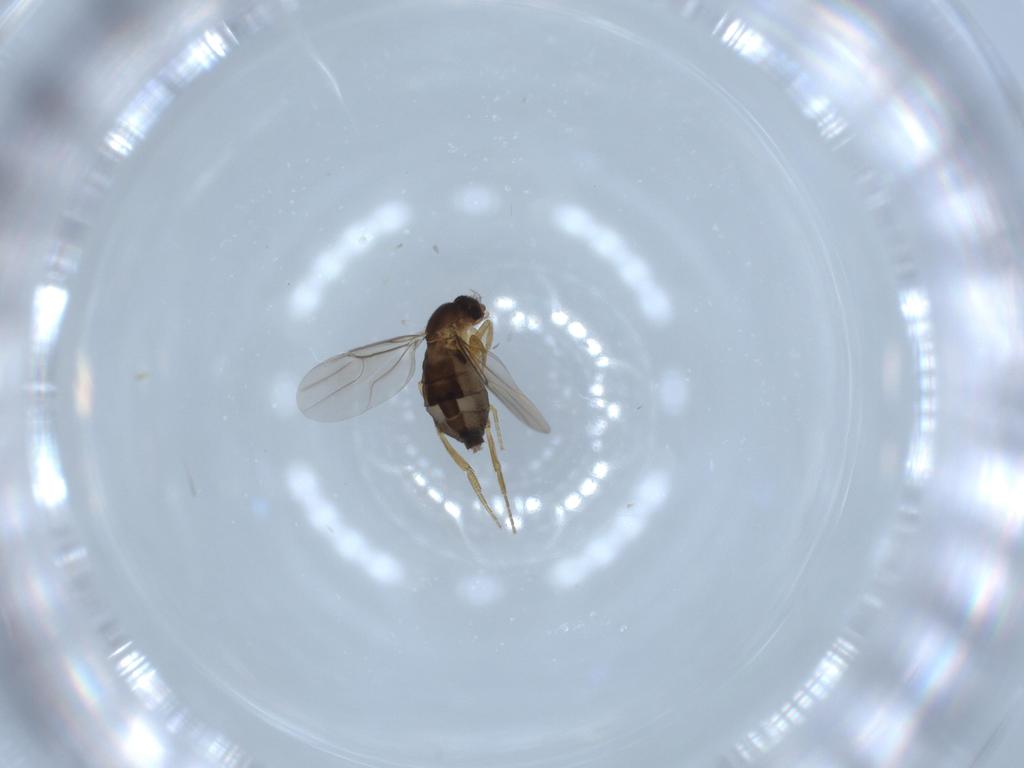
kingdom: Animalia
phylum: Arthropoda
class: Insecta
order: Diptera
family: Phoridae
